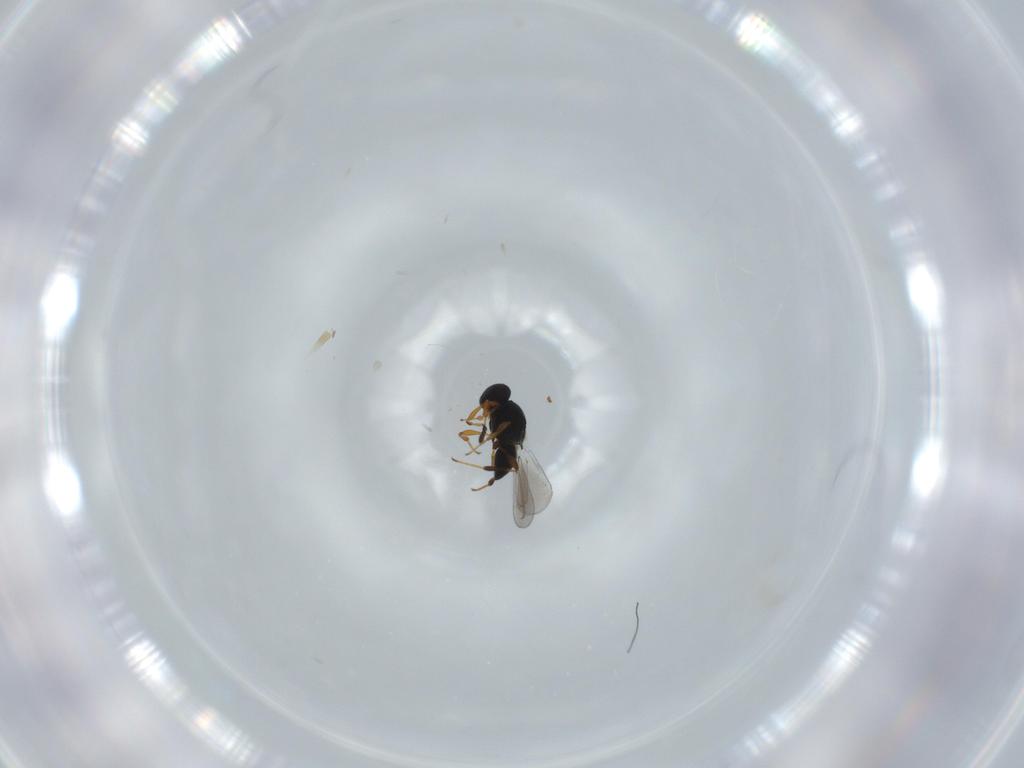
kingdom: Animalia
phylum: Arthropoda
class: Insecta
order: Hymenoptera
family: Platygastridae
